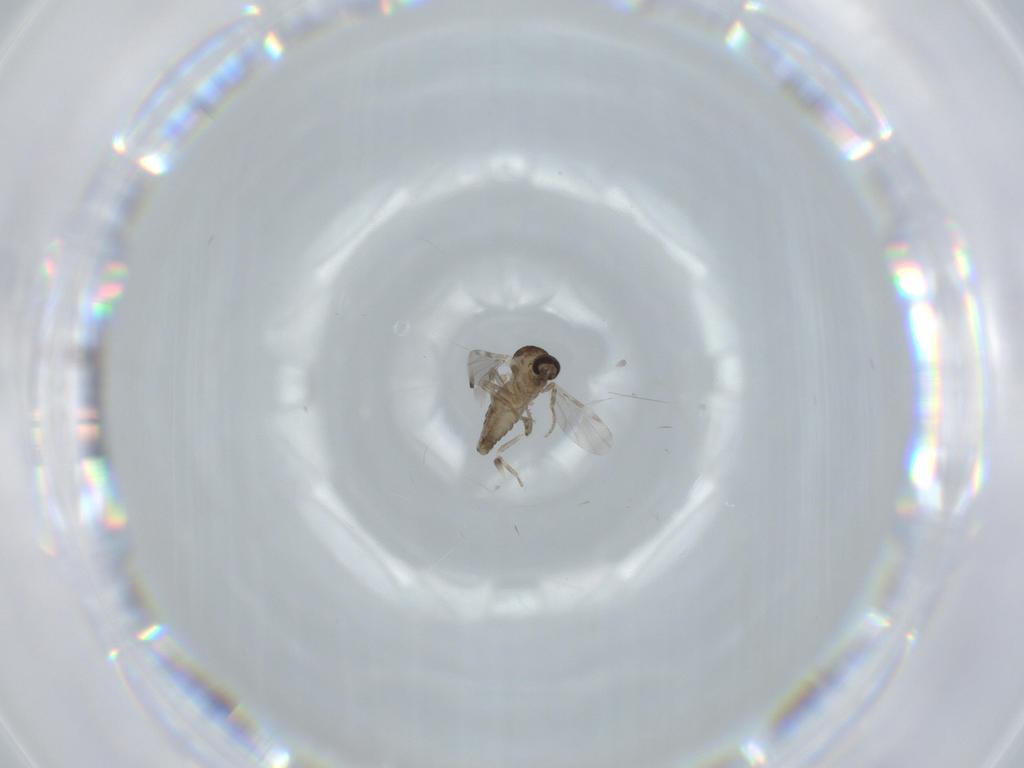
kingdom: Animalia
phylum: Arthropoda
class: Insecta
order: Diptera
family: Ceratopogonidae
